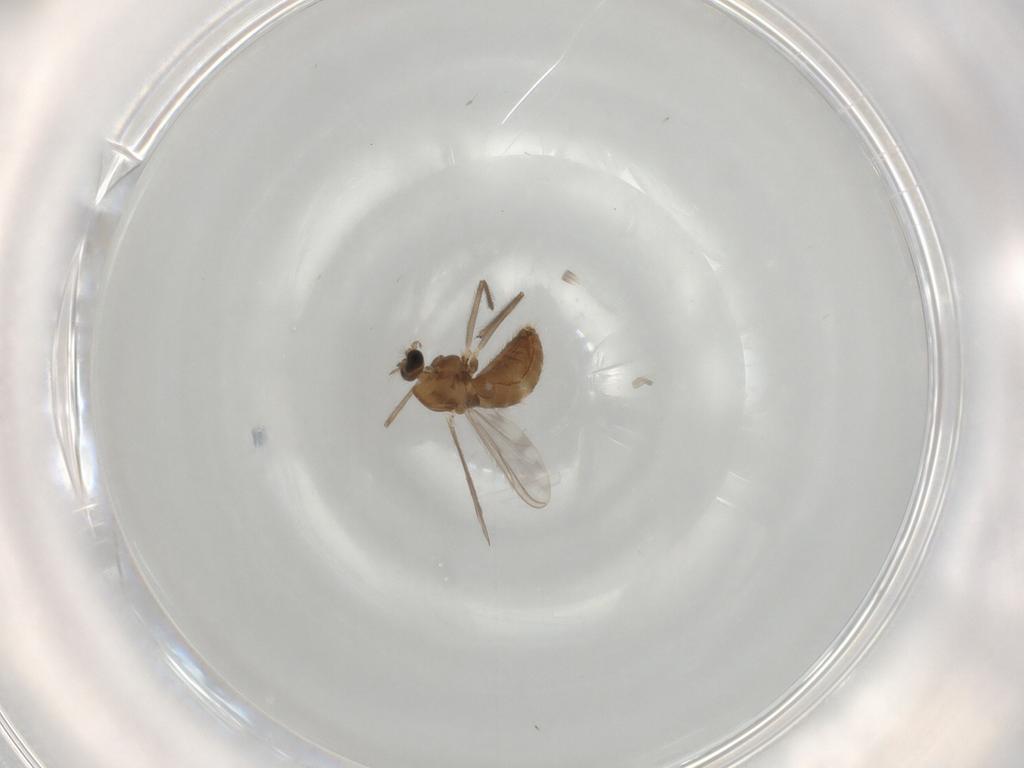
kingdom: Animalia
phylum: Arthropoda
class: Insecta
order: Diptera
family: Chironomidae
